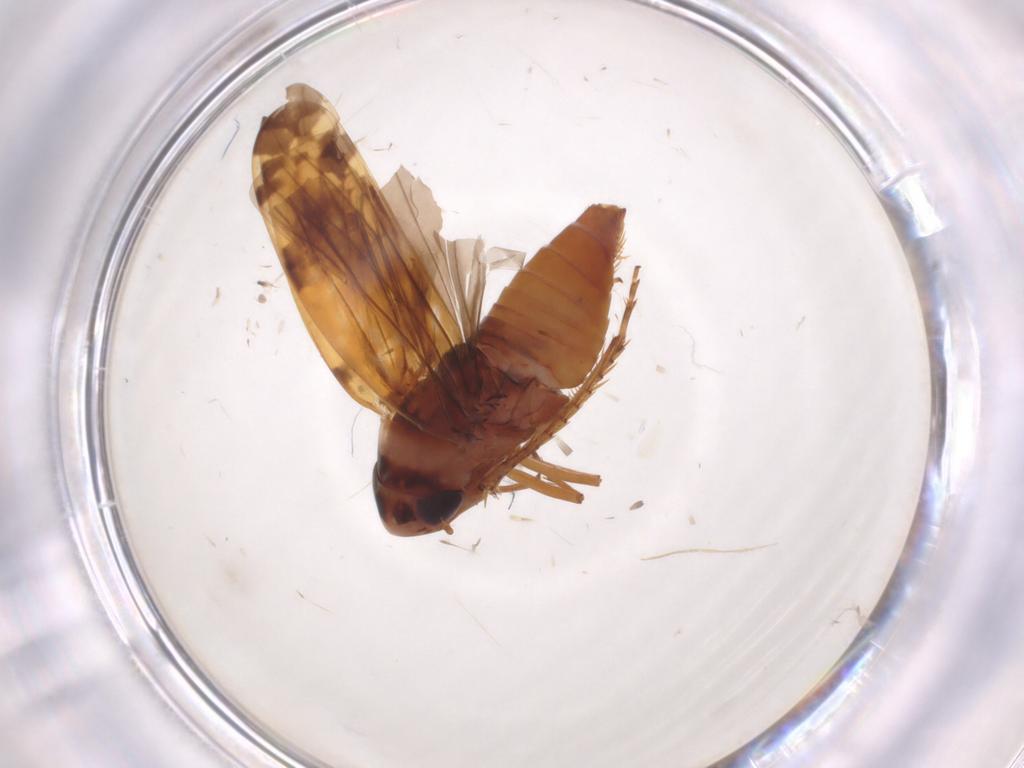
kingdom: Animalia
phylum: Arthropoda
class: Insecta
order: Hemiptera
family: Cicadellidae
